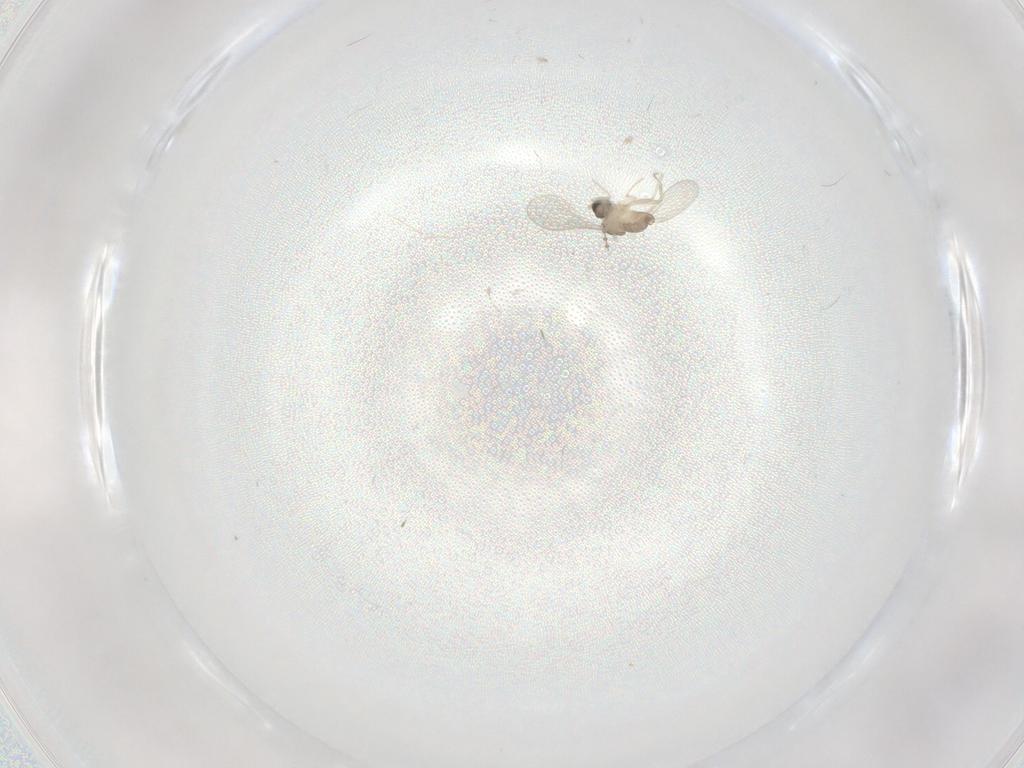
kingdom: Animalia
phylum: Arthropoda
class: Insecta
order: Diptera
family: Cecidomyiidae
